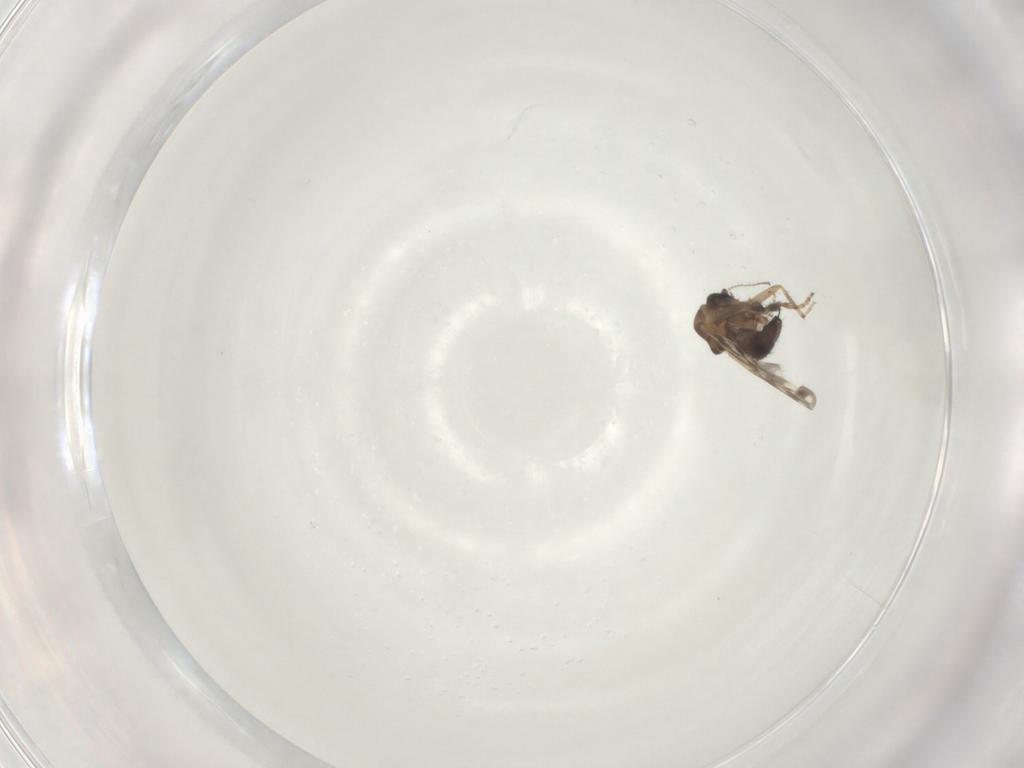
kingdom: Animalia
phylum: Arthropoda
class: Insecta
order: Diptera
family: Ceratopogonidae
